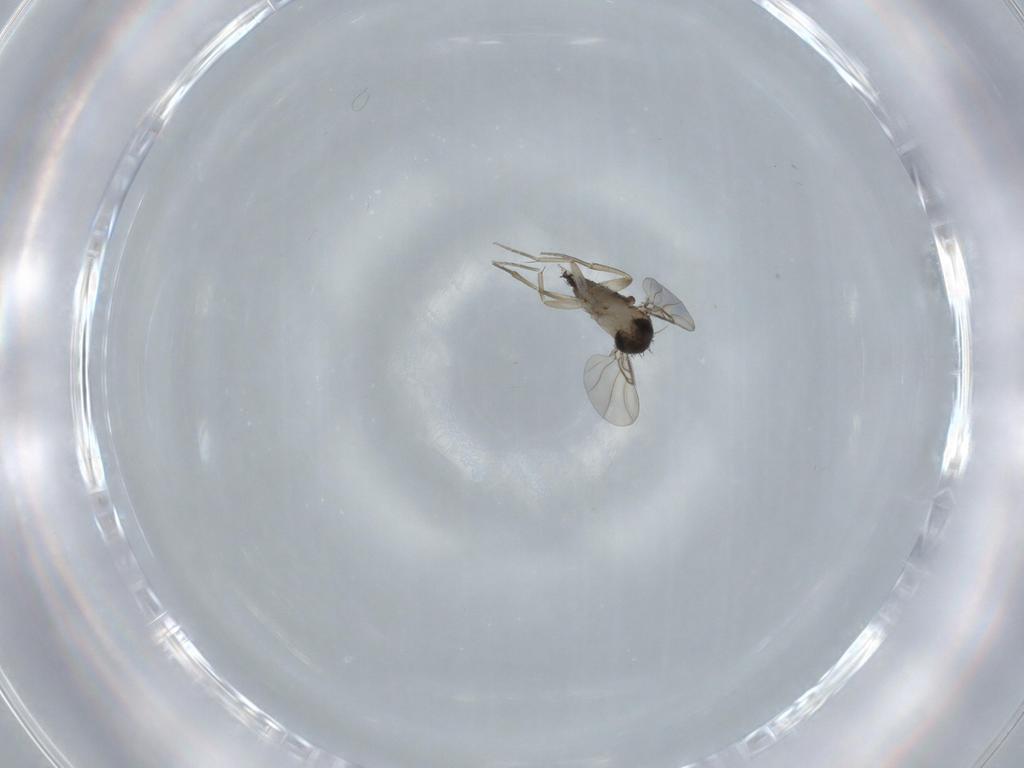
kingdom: Animalia
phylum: Arthropoda
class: Insecta
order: Diptera
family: Phoridae
